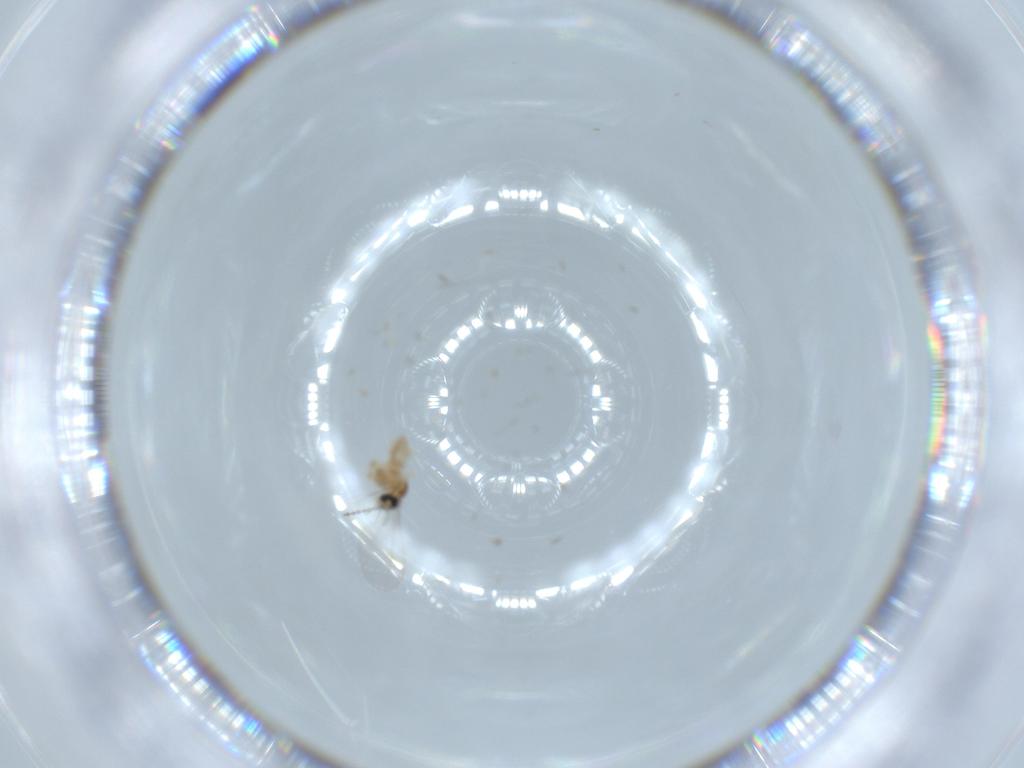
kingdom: Animalia
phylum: Arthropoda
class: Insecta
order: Diptera
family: Cecidomyiidae
